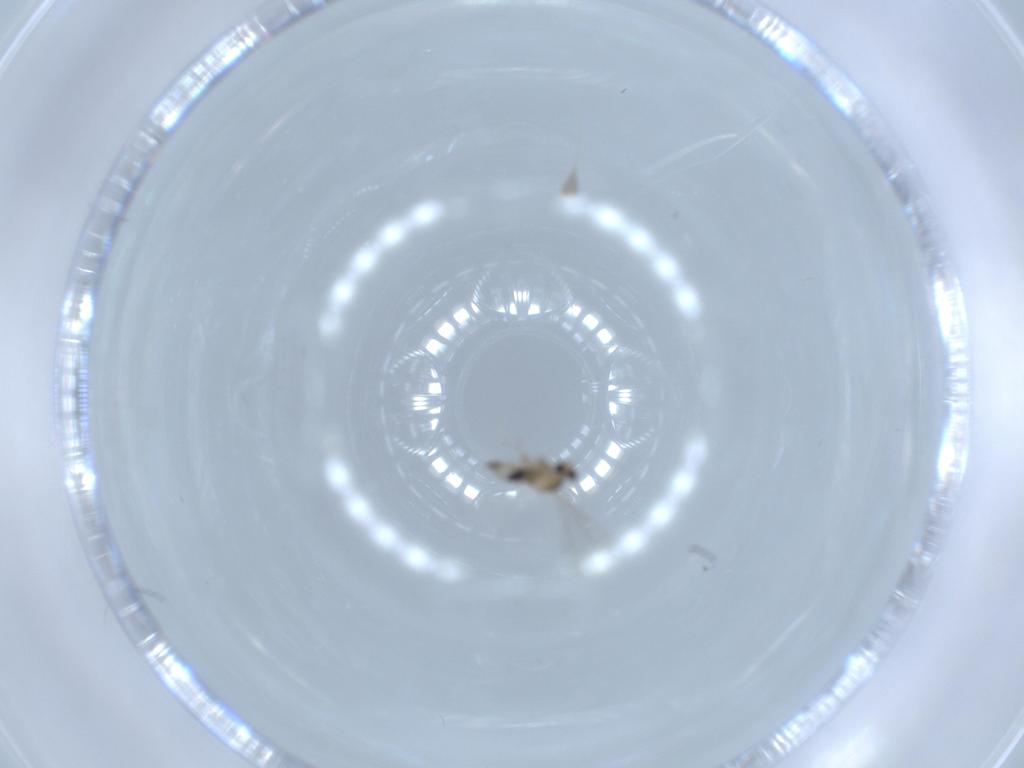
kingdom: Animalia
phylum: Arthropoda
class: Insecta
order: Diptera
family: Cecidomyiidae
